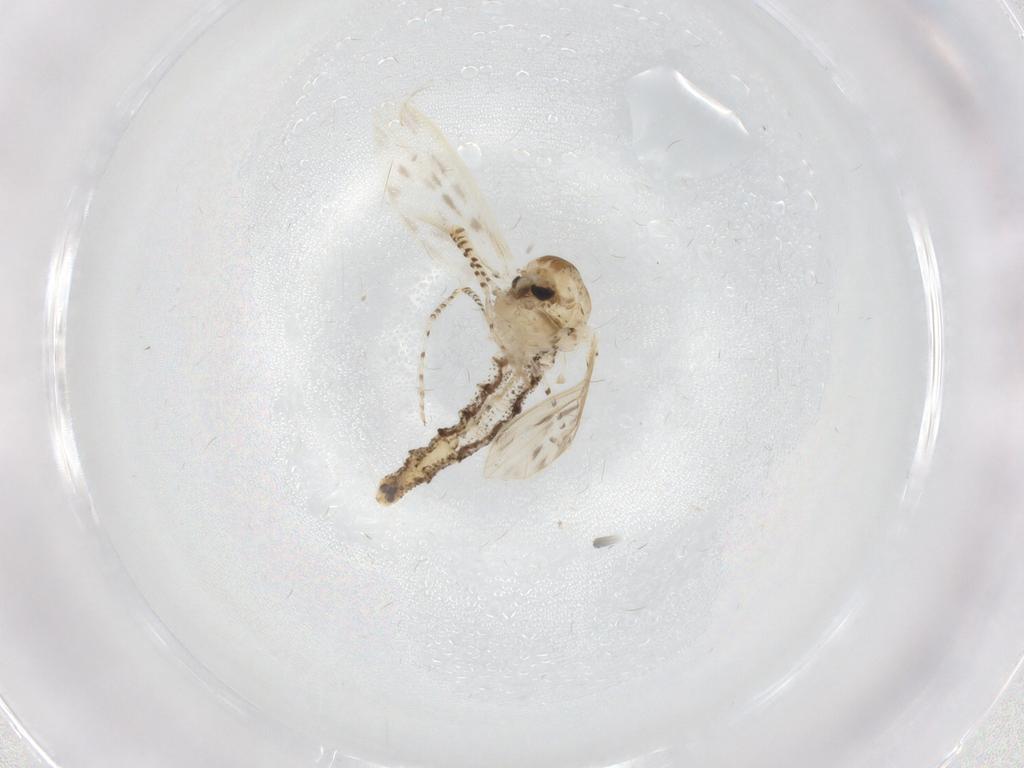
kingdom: Animalia
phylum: Arthropoda
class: Insecta
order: Diptera
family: Chaoboridae
